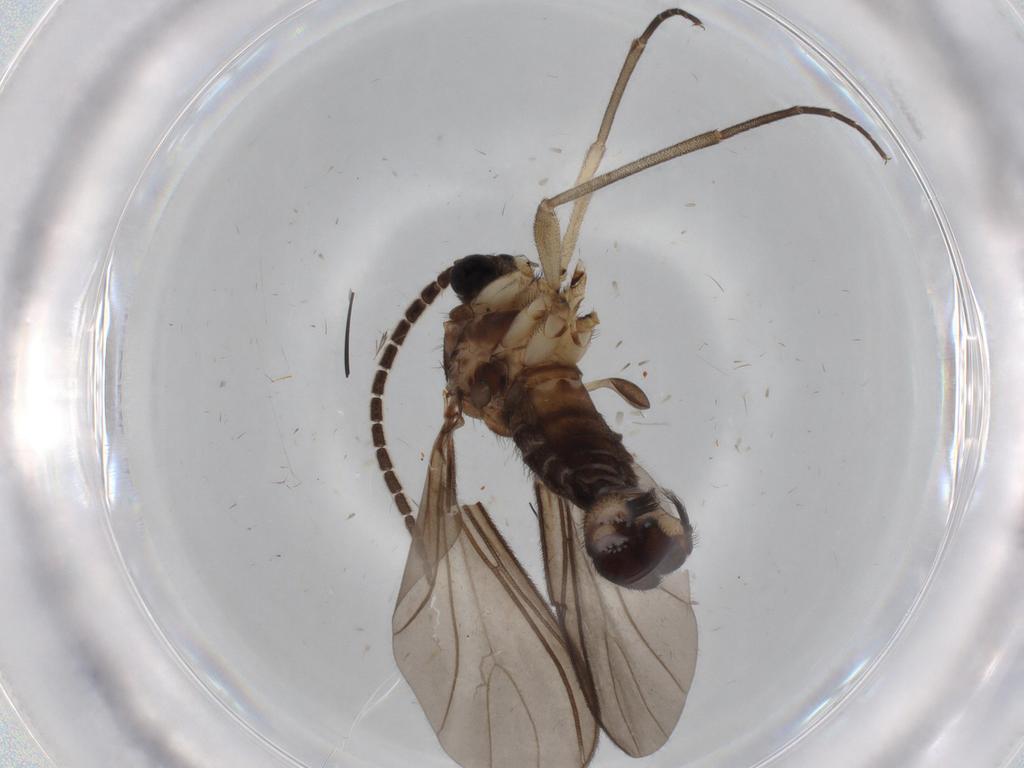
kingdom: Animalia
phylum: Arthropoda
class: Insecta
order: Diptera
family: Drosophilidae
